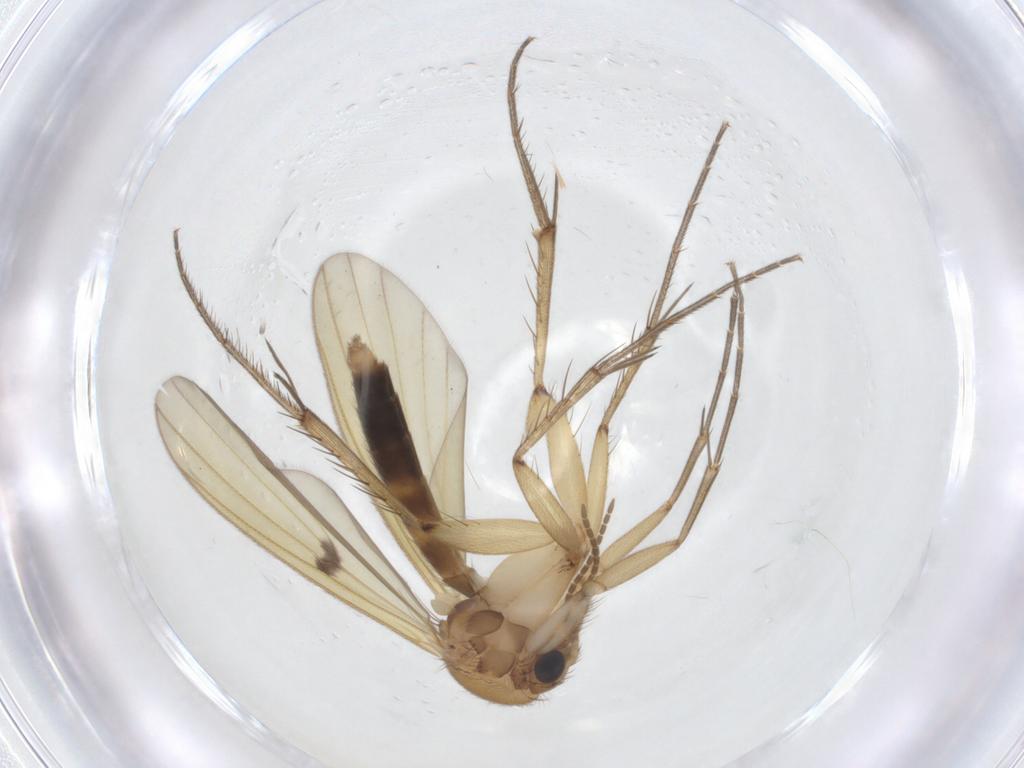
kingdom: Animalia
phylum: Arthropoda
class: Insecta
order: Diptera
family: Mycetophilidae
